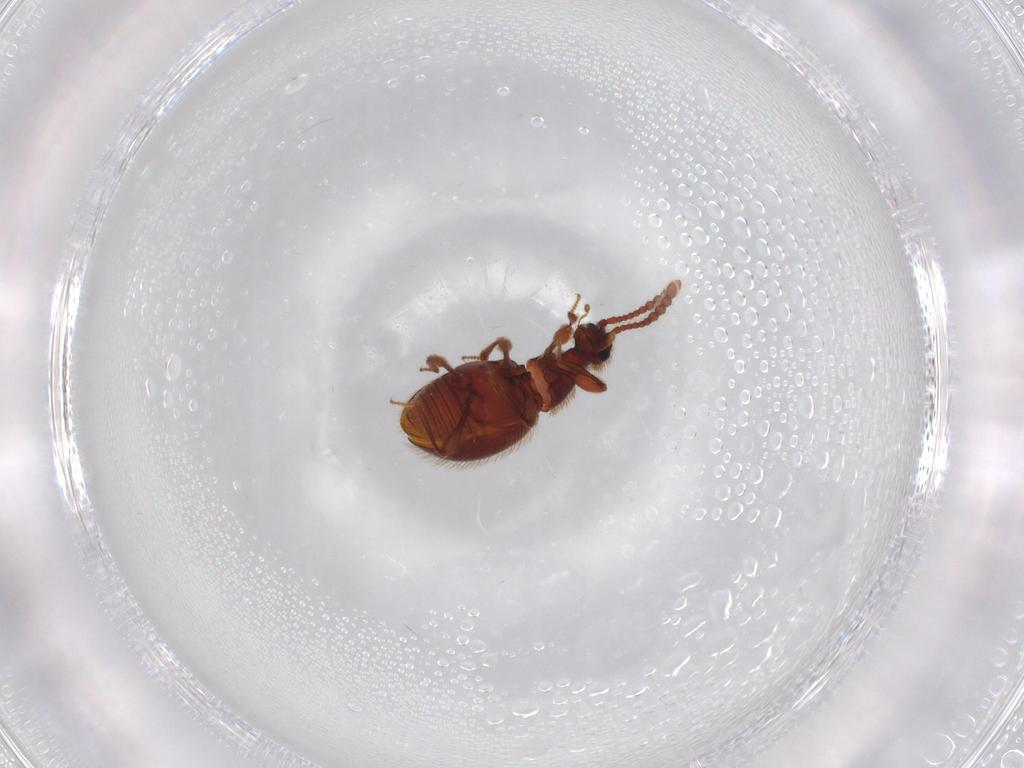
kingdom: Animalia
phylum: Arthropoda
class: Insecta
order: Coleoptera
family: Staphylinidae
